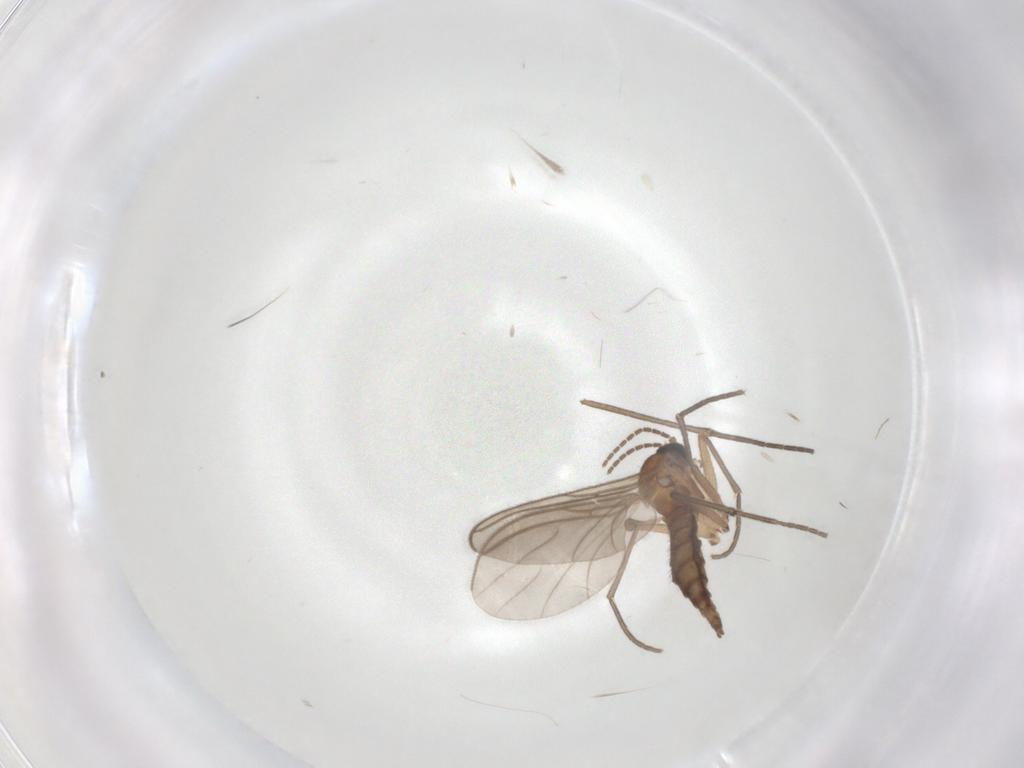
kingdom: Animalia
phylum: Arthropoda
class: Insecta
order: Diptera
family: Sciaridae
